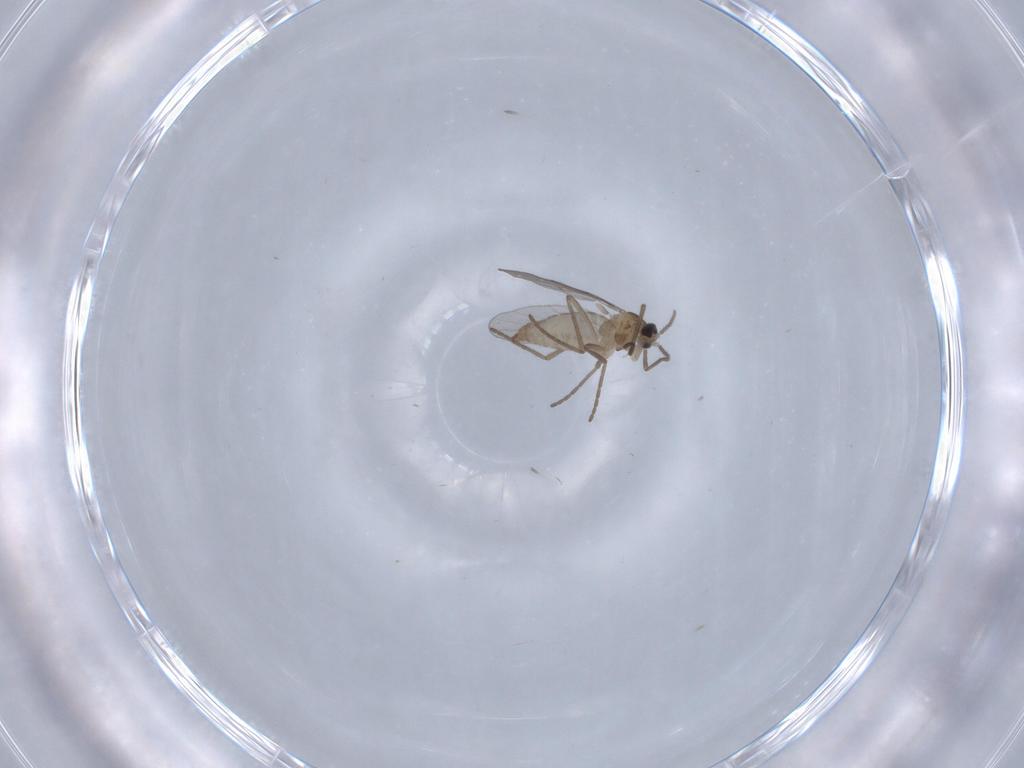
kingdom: Animalia
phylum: Arthropoda
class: Insecta
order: Diptera
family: Cecidomyiidae
